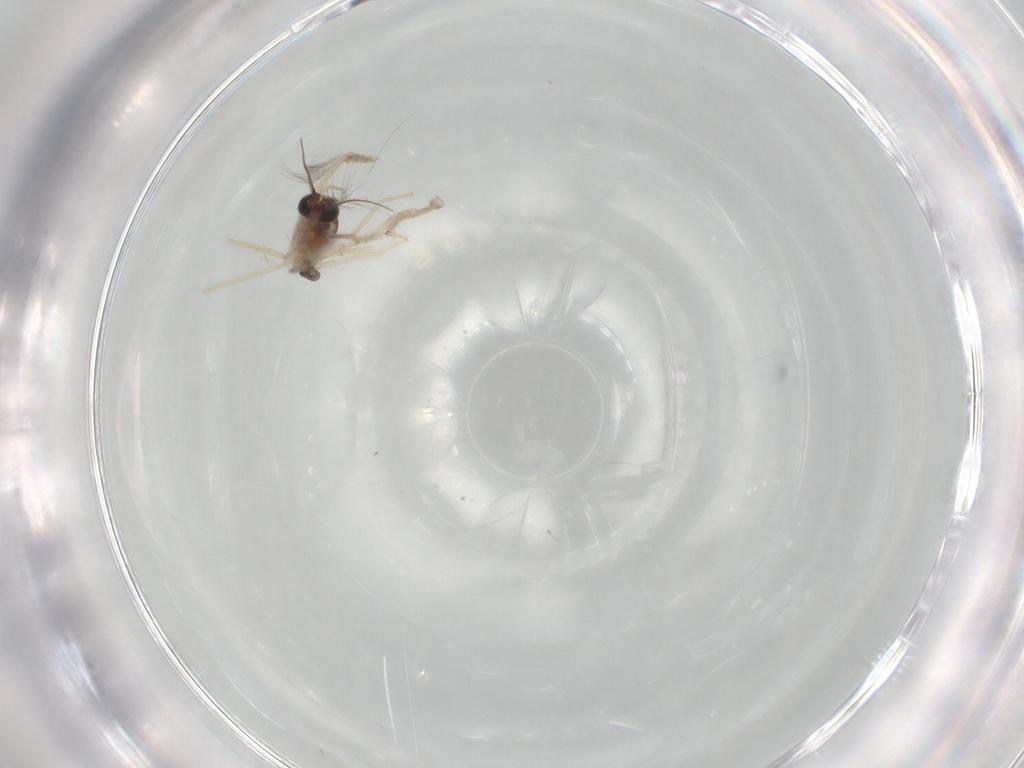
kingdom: Animalia
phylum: Arthropoda
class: Insecta
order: Diptera
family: Chironomidae
